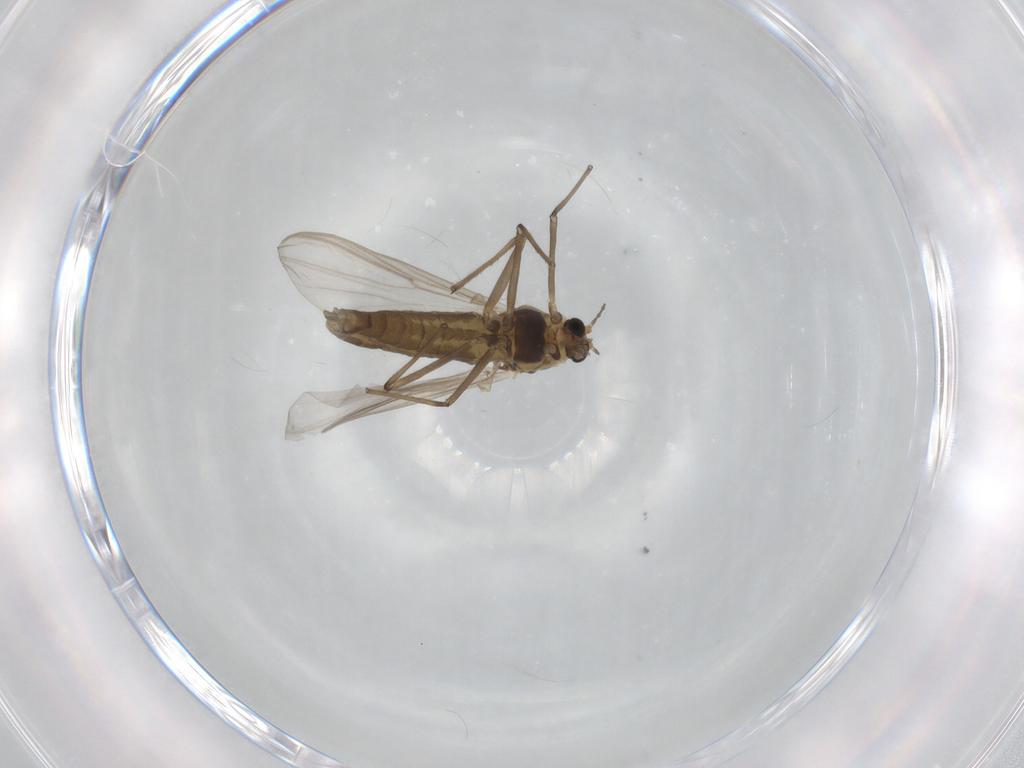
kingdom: Animalia
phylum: Arthropoda
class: Insecta
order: Diptera
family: Chironomidae
